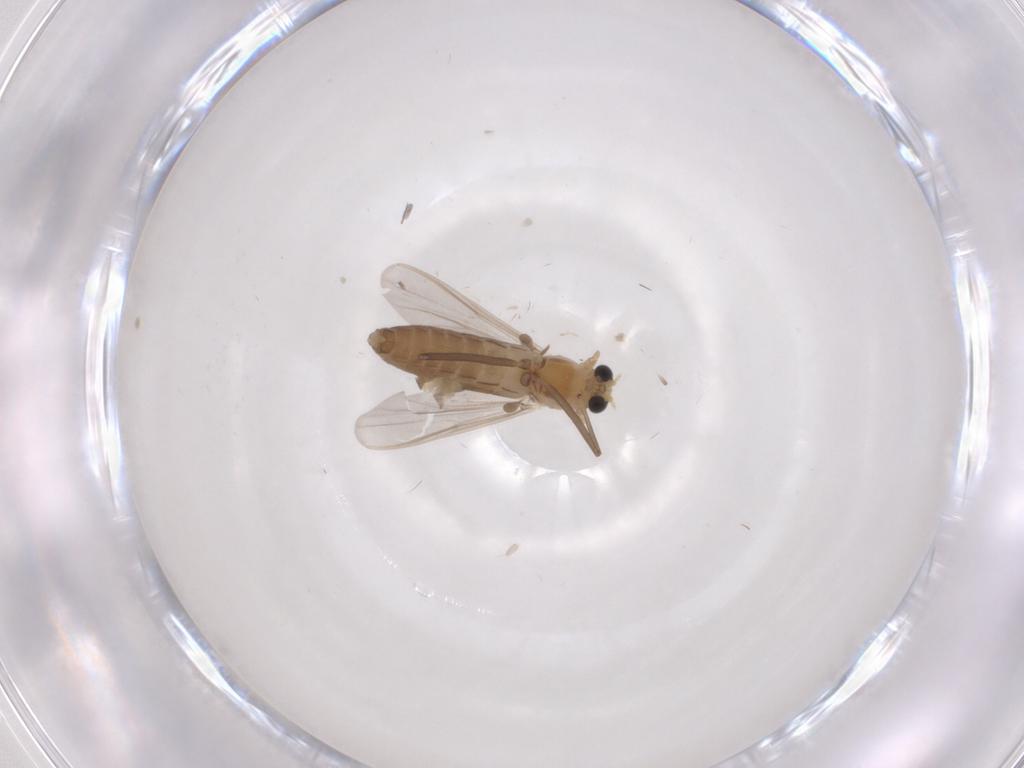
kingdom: Animalia
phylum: Arthropoda
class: Insecta
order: Diptera
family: Chironomidae
